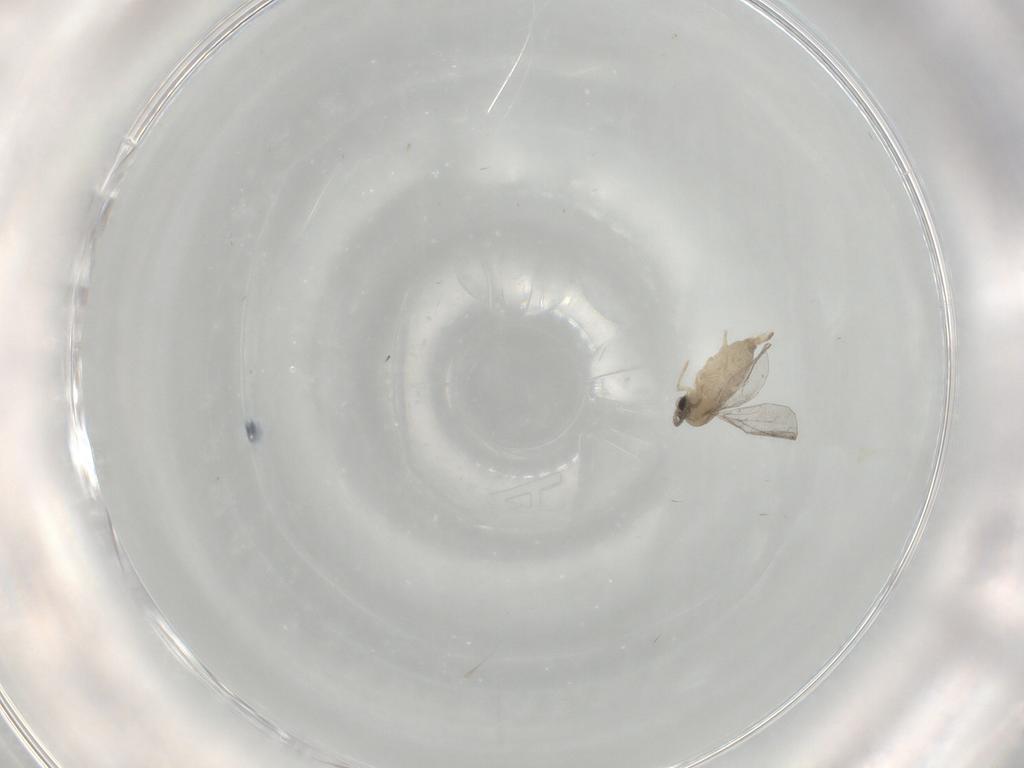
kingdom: Animalia
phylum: Arthropoda
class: Insecta
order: Diptera
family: Cecidomyiidae
